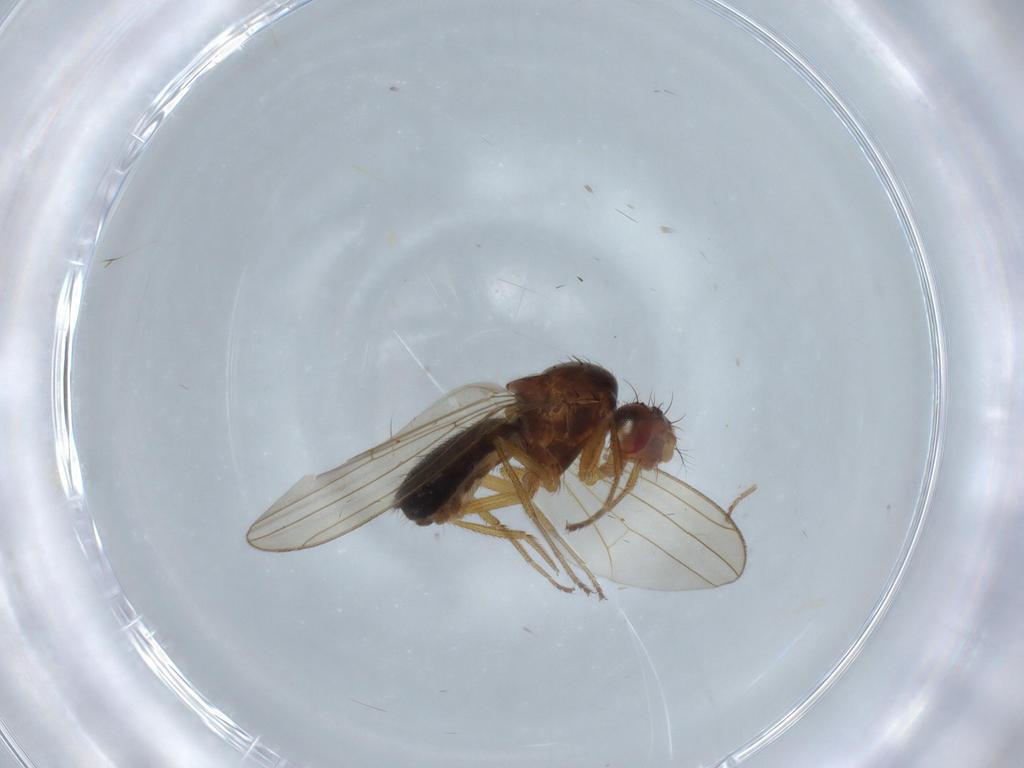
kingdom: Animalia
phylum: Arthropoda
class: Insecta
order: Diptera
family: Drosophilidae
